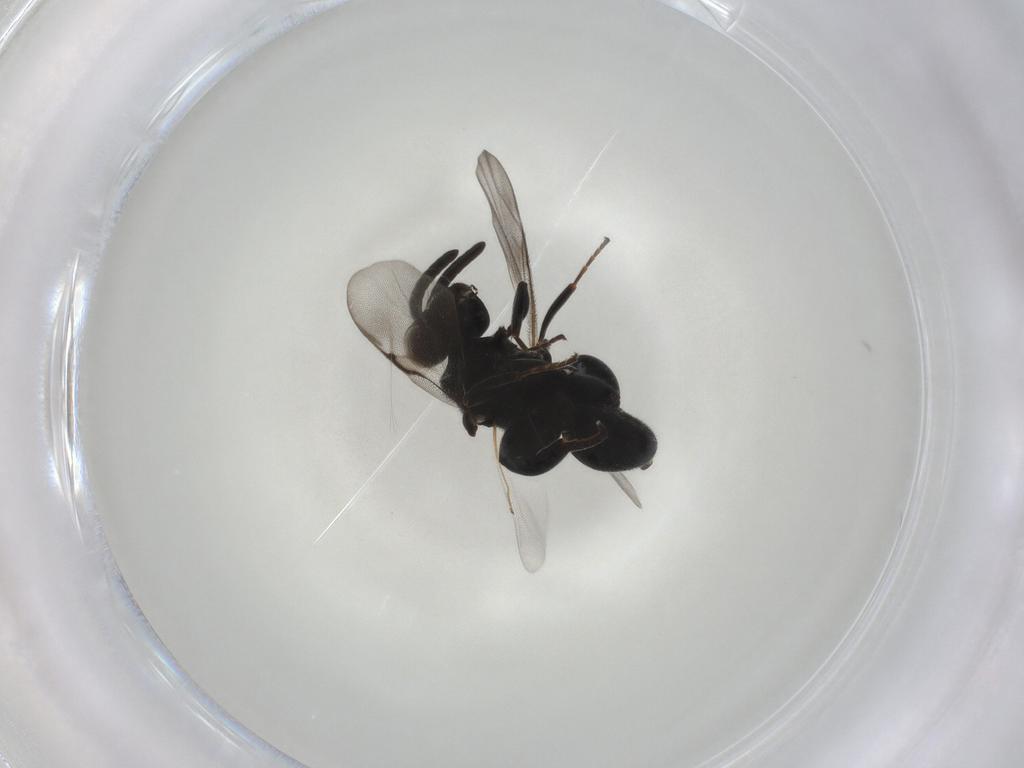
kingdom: Animalia
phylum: Arthropoda
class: Insecta
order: Hymenoptera
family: Chalcididae
